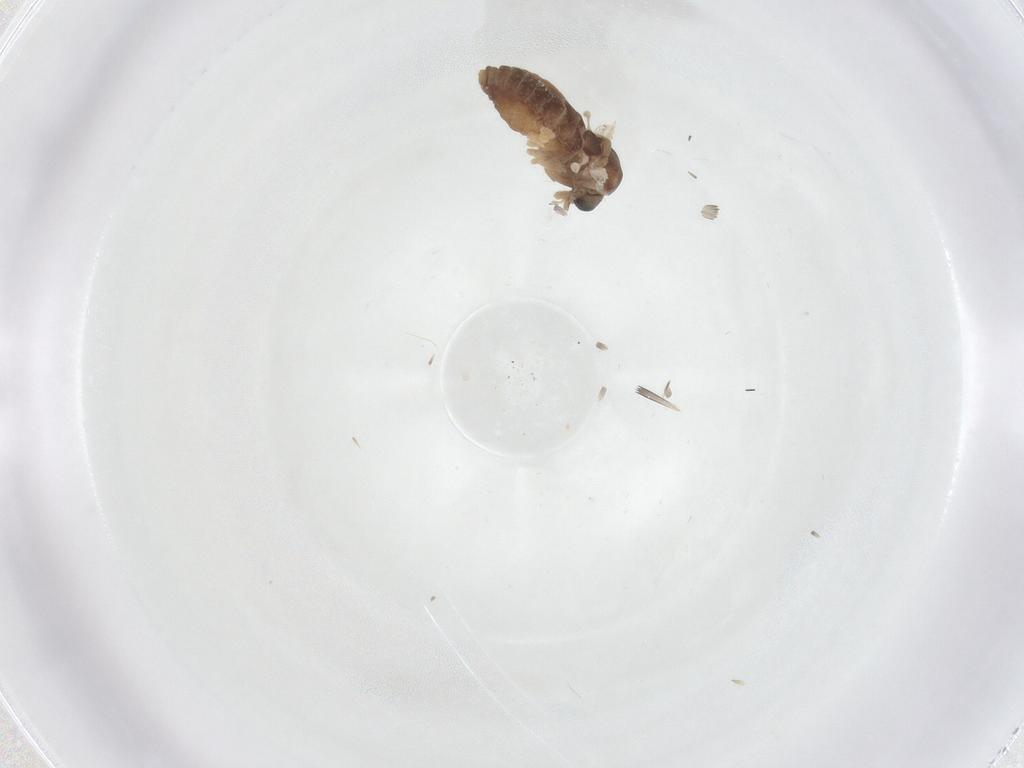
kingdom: Animalia
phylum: Arthropoda
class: Insecta
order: Diptera
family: Chironomidae
